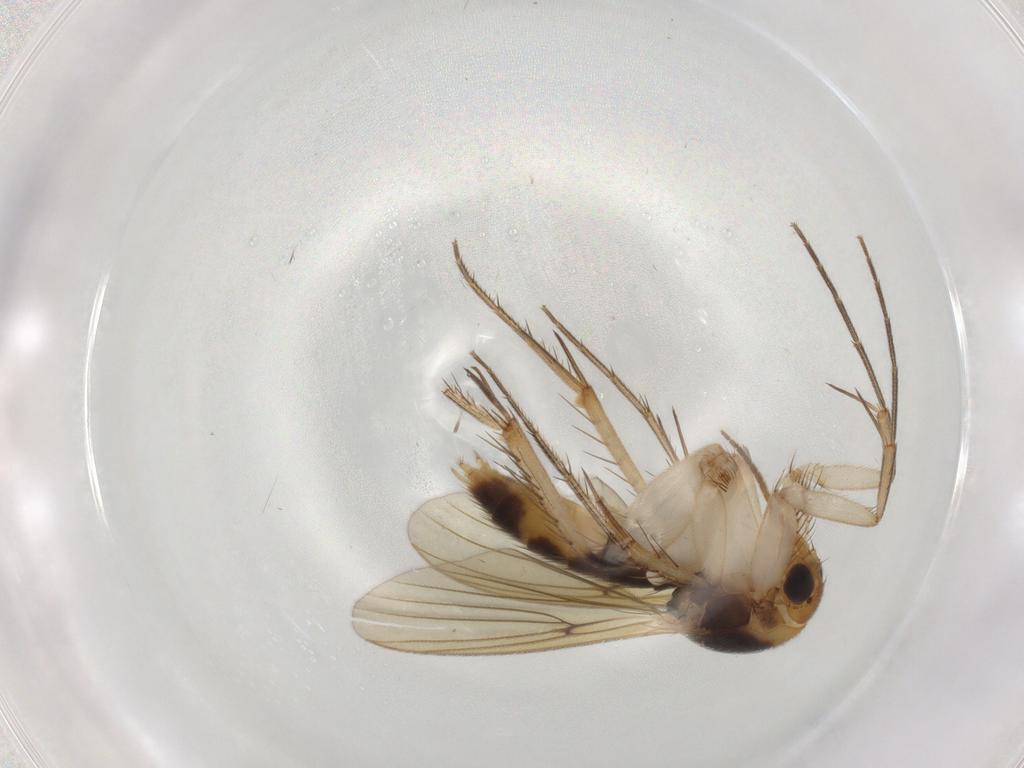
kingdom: Animalia
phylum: Arthropoda
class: Insecta
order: Diptera
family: Mycetophilidae
